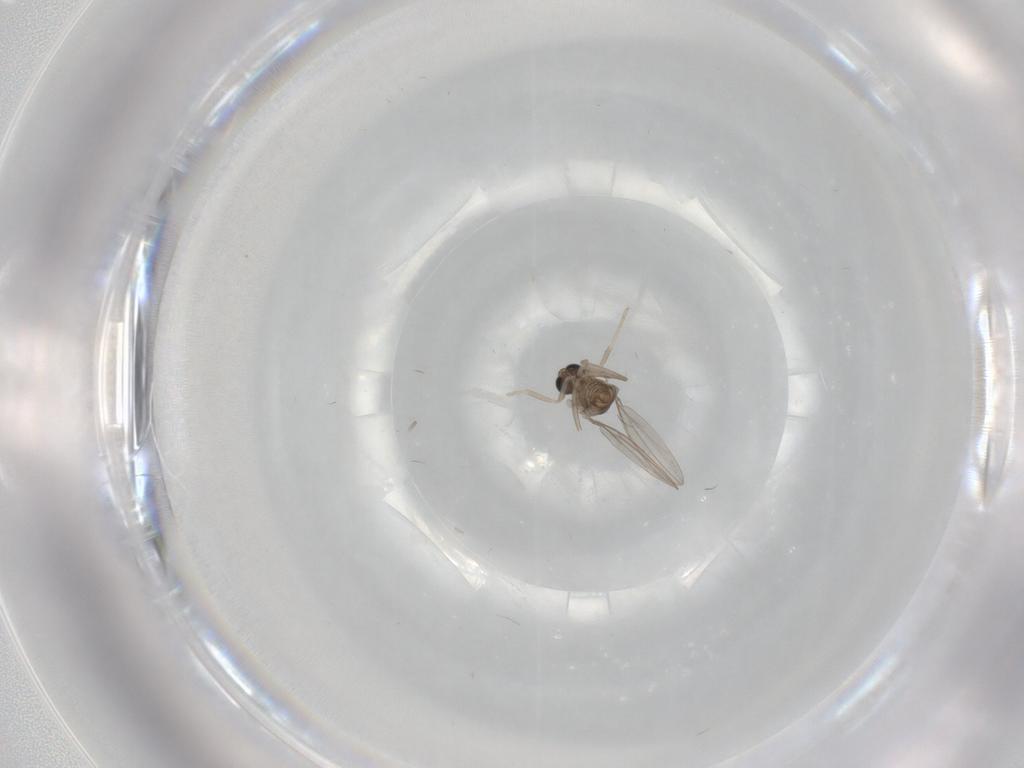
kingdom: Animalia
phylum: Arthropoda
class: Insecta
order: Diptera
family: Cecidomyiidae
